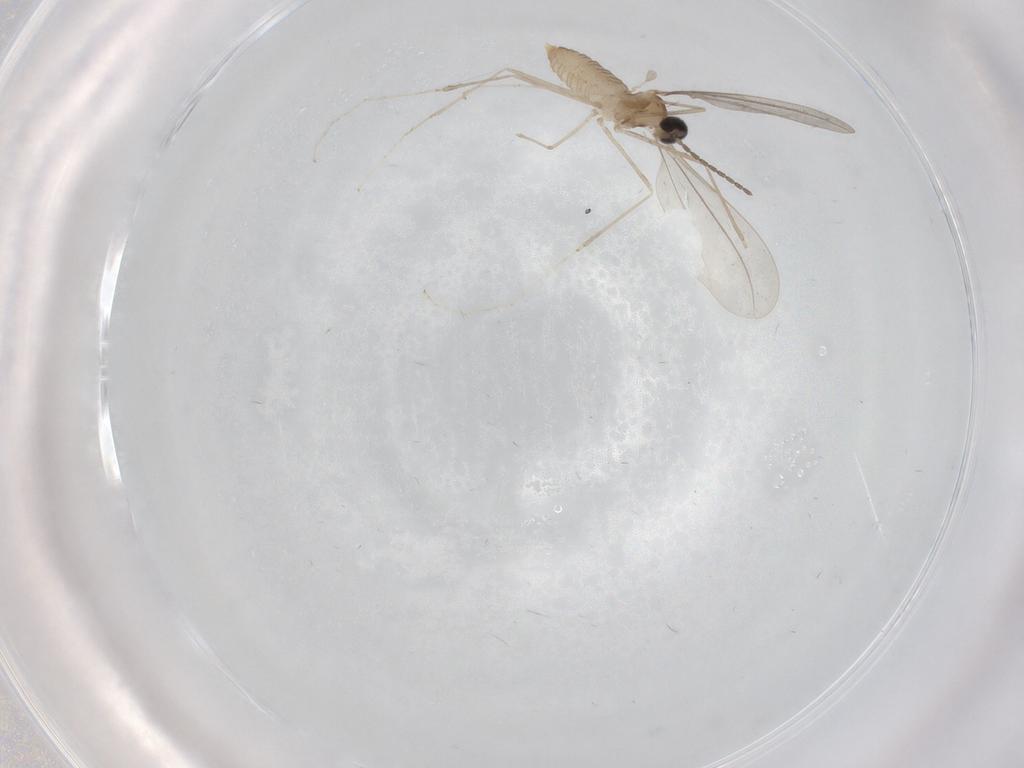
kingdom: Animalia
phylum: Arthropoda
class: Insecta
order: Diptera
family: Cecidomyiidae
